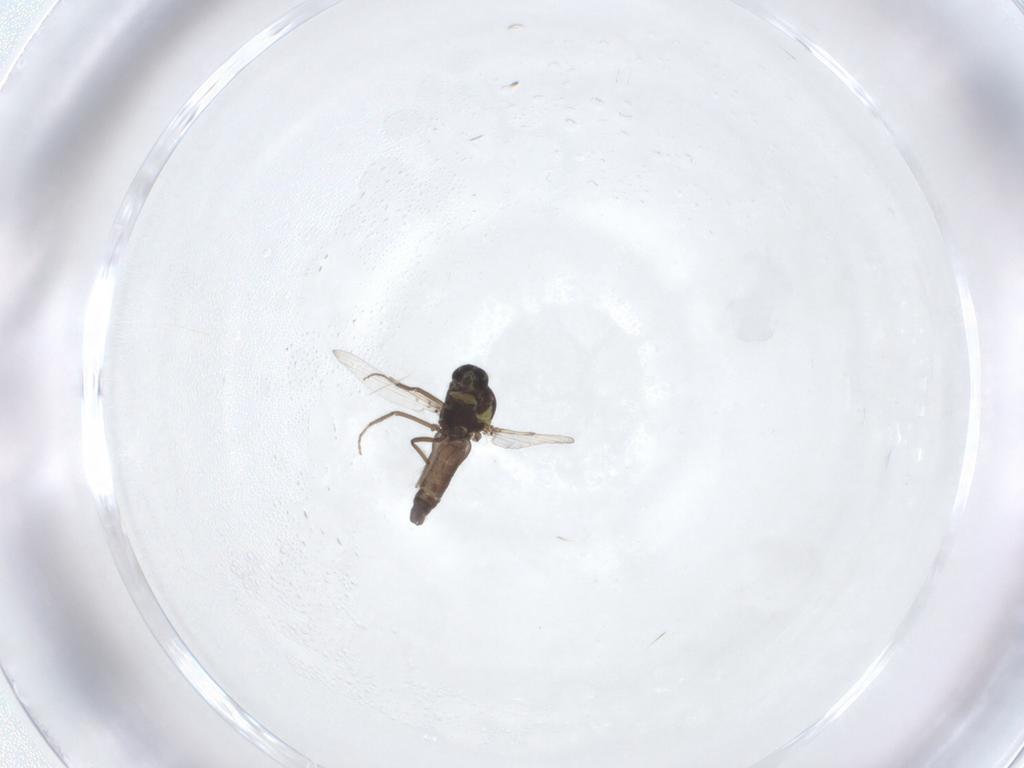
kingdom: Animalia
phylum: Arthropoda
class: Insecta
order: Diptera
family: Ceratopogonidae
